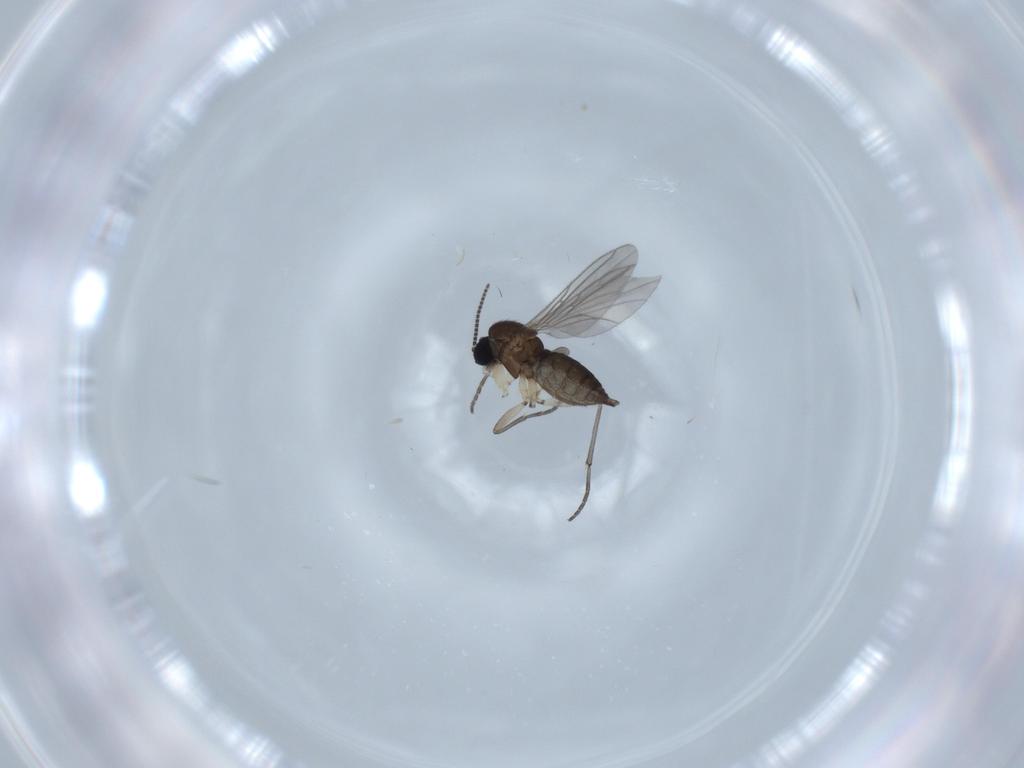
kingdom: Animalia
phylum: Arthropoda
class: Insecta
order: Diptera
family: Sciaridae
